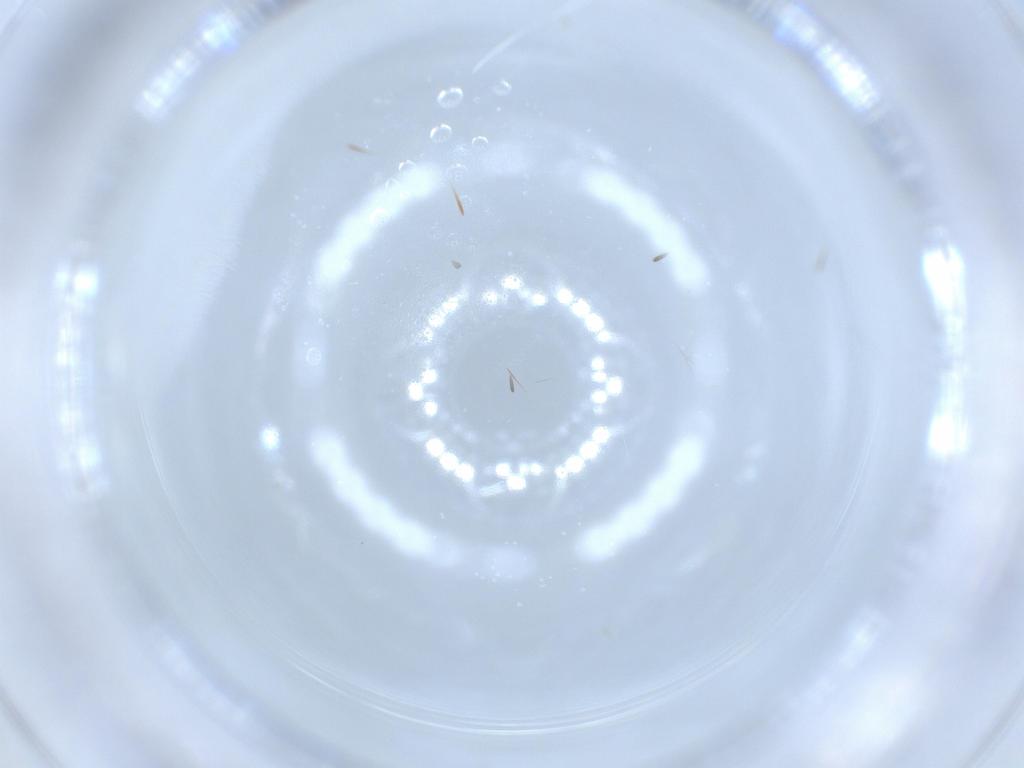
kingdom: Animalia
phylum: Arthropoda
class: Insecta
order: Diptera
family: Cecidomyiidae
